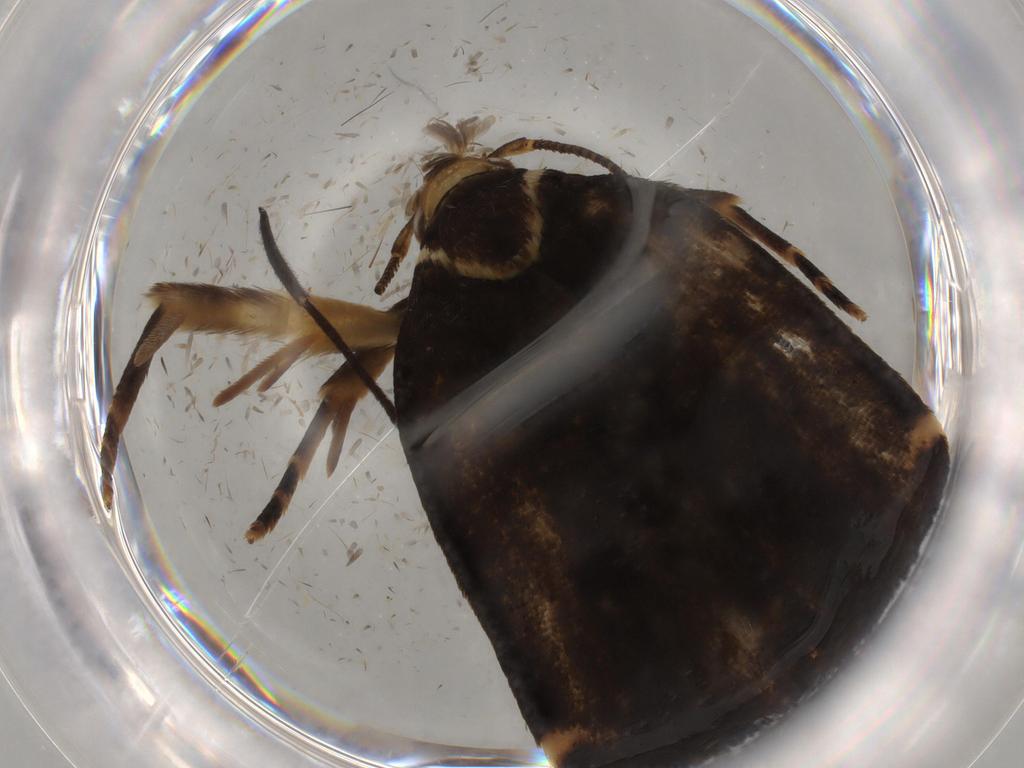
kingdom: Animalia
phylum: Arthropoda
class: Insecta
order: Lepidoptera
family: Gelechiidae
